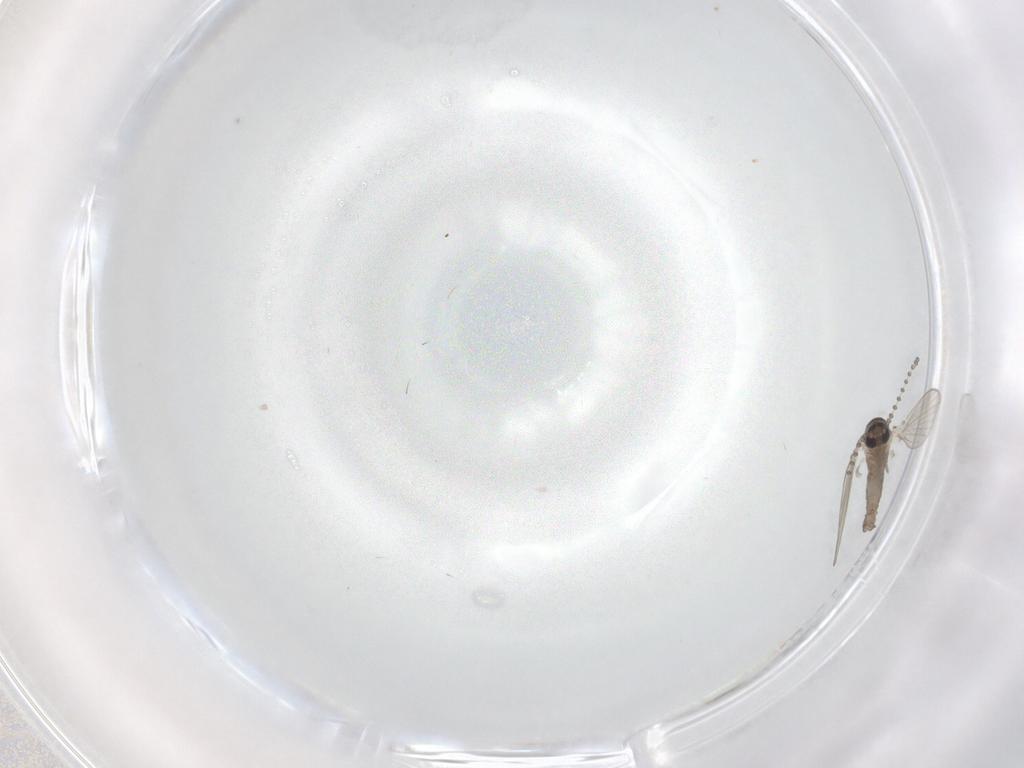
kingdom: Animalia
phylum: Arthropoda
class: Insecta
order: Diptera
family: Psychodidae
